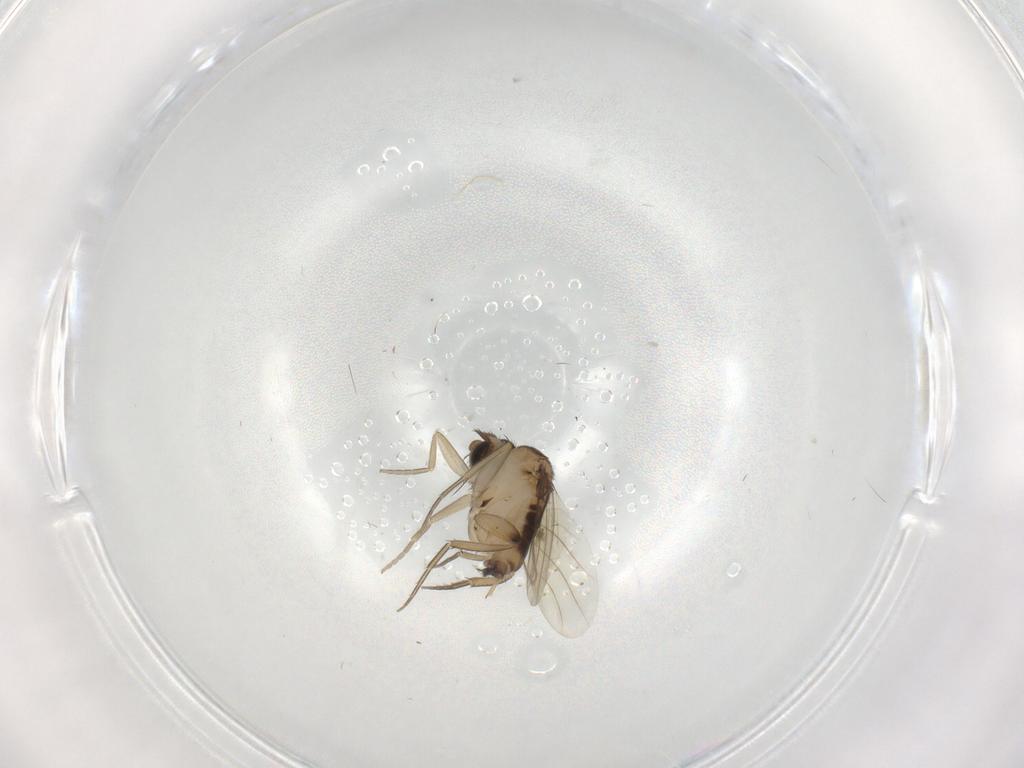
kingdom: Animalia
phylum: Arthropoda
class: Insecta
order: Diptera
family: Phoridae
